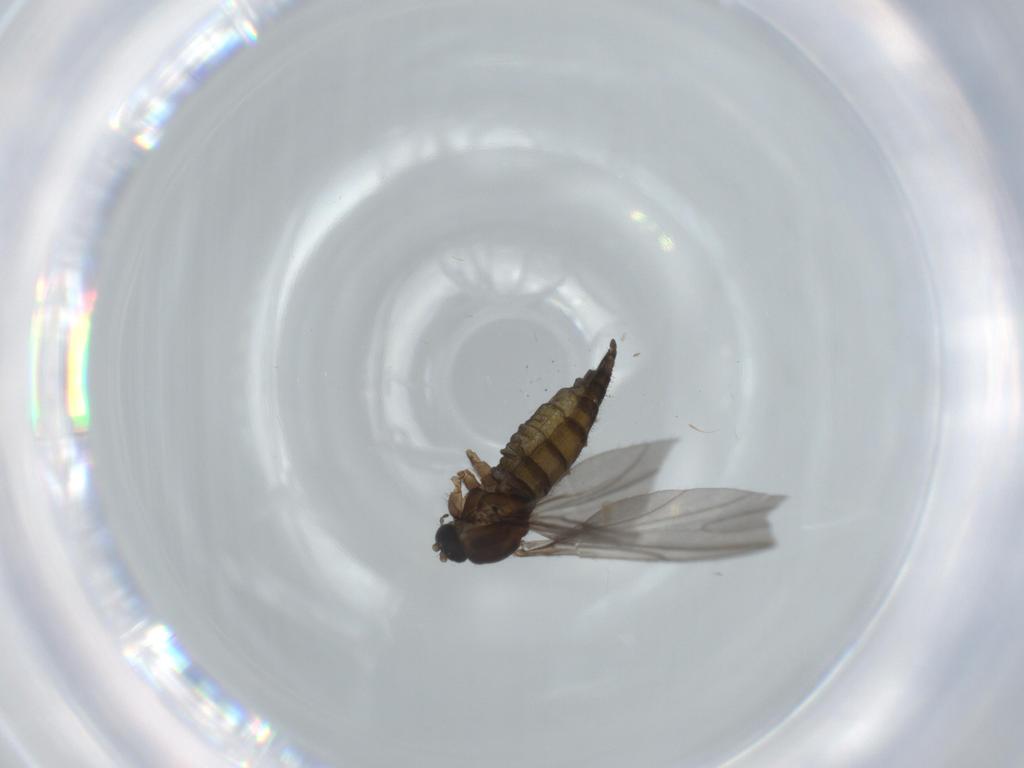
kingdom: Animalia
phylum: Arthropoda
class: Insecta
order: Diptera
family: Sciaridae
